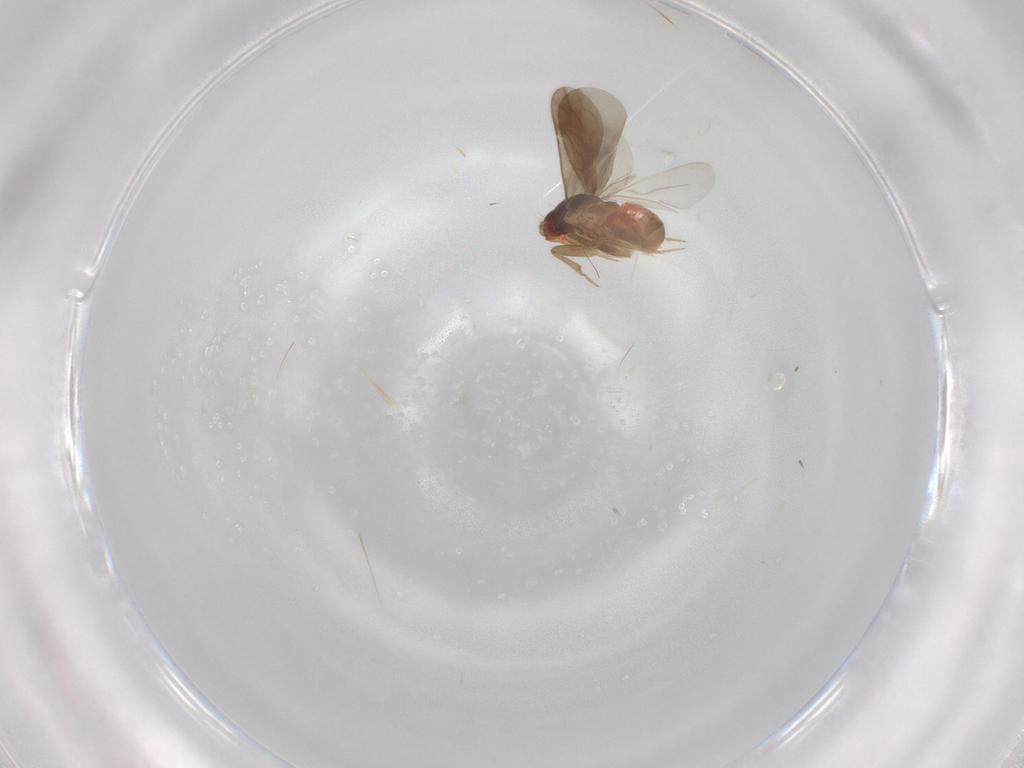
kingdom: Animalia
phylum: Arthropoda
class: Insecta
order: Hemiptera
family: Ceratocombidae
